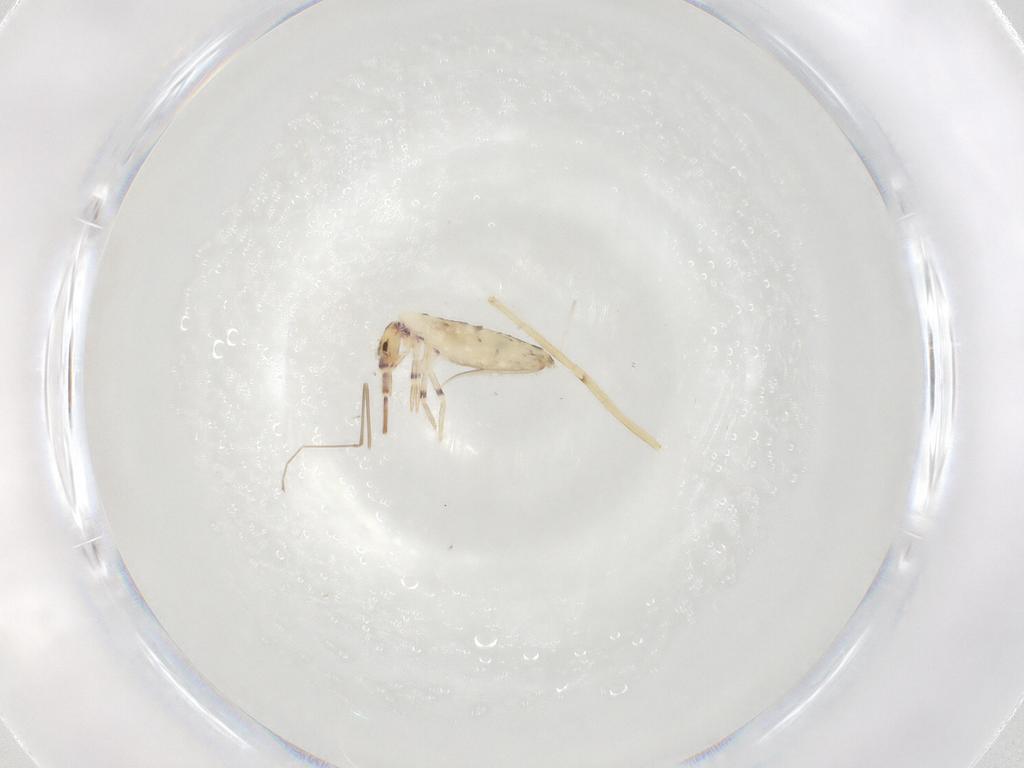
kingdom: Animalia
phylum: Arthropoda
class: Collembola
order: Entomobryomorpha
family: Entomobryidae
